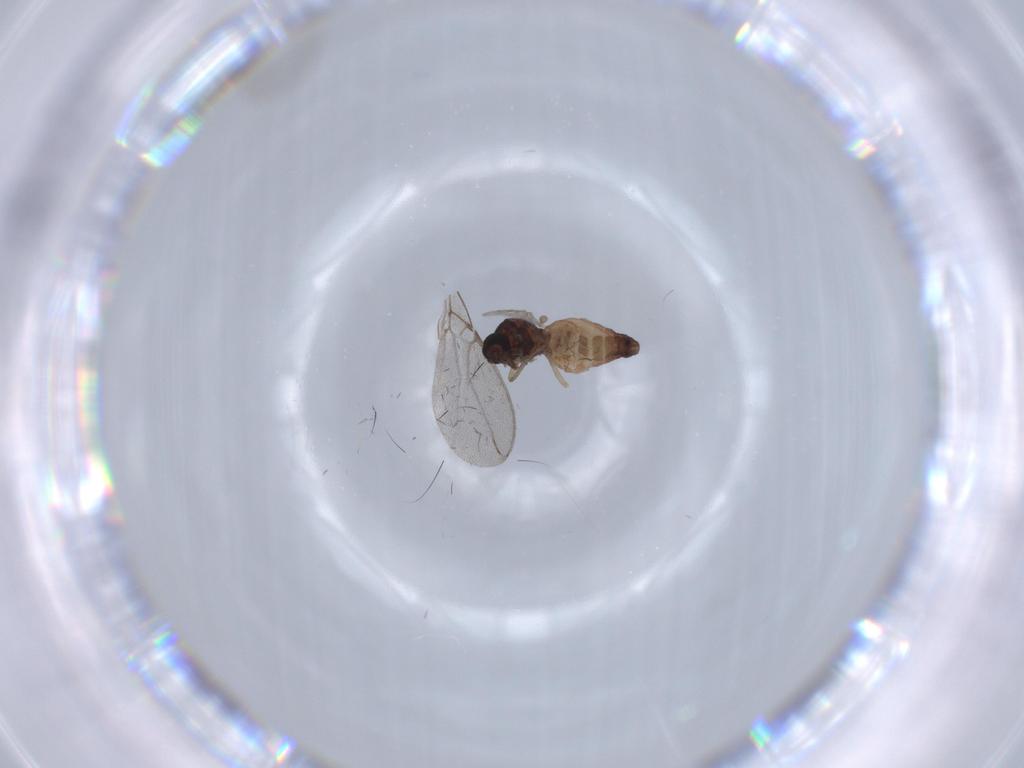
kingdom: Animalia
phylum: Arthropoda
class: Insecta
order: Diptera
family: Ceratopogonidae
